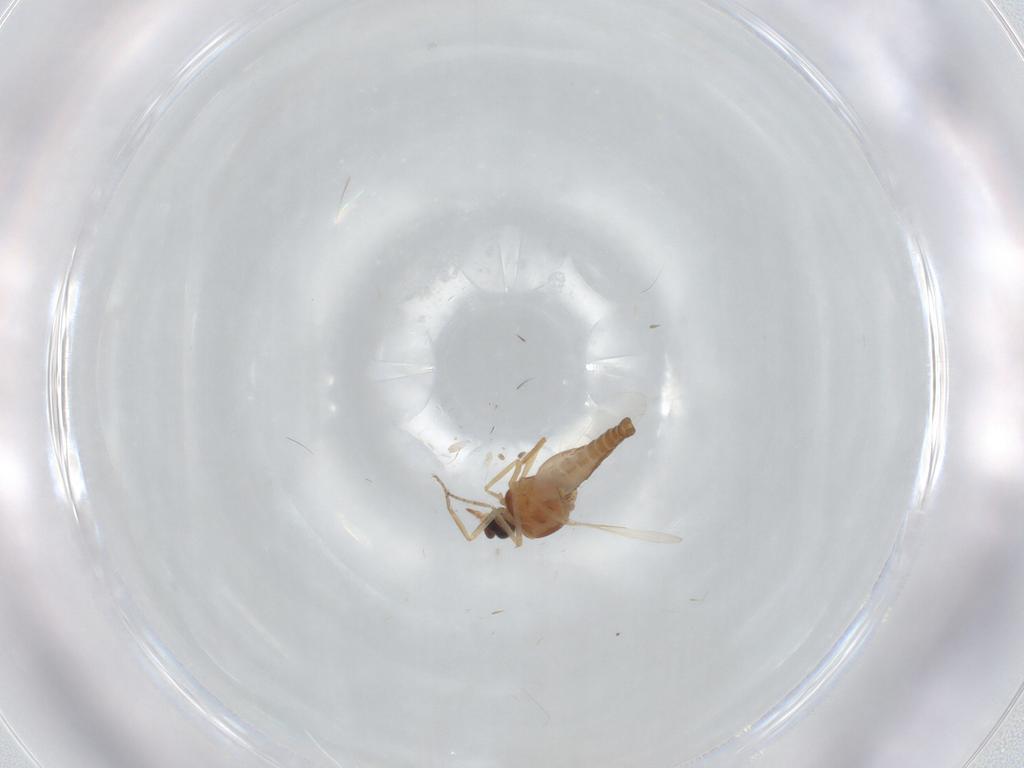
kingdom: Animalia
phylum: Arthropoda
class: Insecta
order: Diptera
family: Ceratopogonidae
